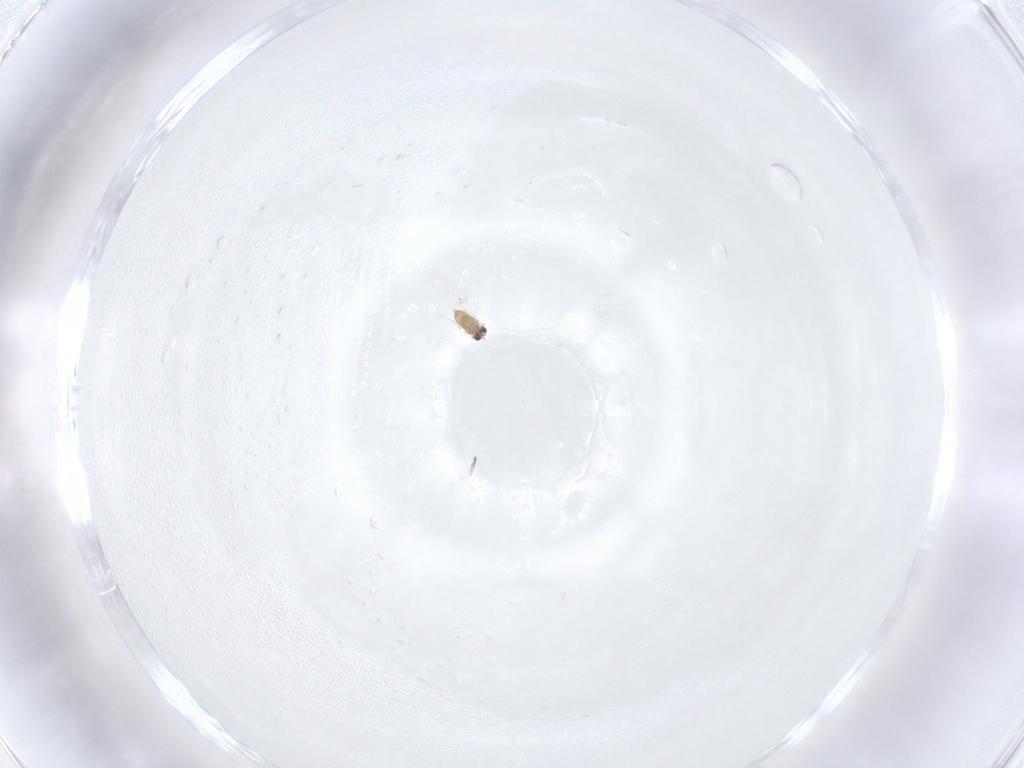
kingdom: Animalia
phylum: Arthropoda
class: Insecta
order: Hymenoptera
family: Mymaridae
